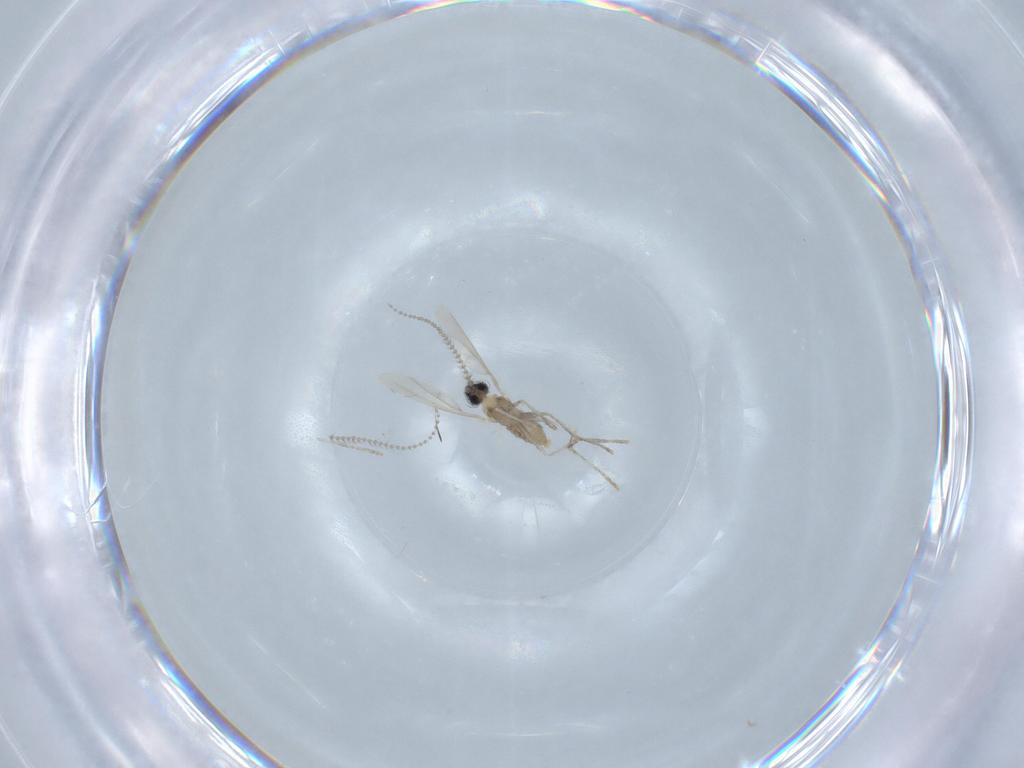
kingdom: Animalia
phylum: Arthropoda
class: Insecta
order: Diptera
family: Cecidomyiidae
